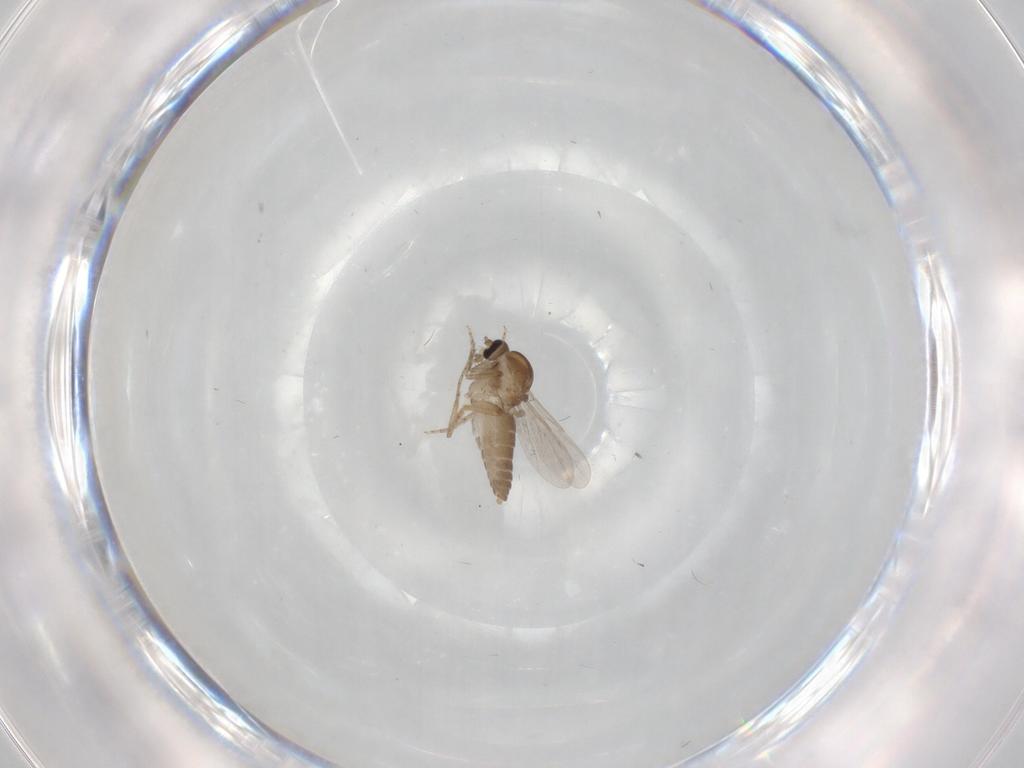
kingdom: Animalia
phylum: Arthropoda
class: Insecta
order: Diptera
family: Ceratopogonidae
